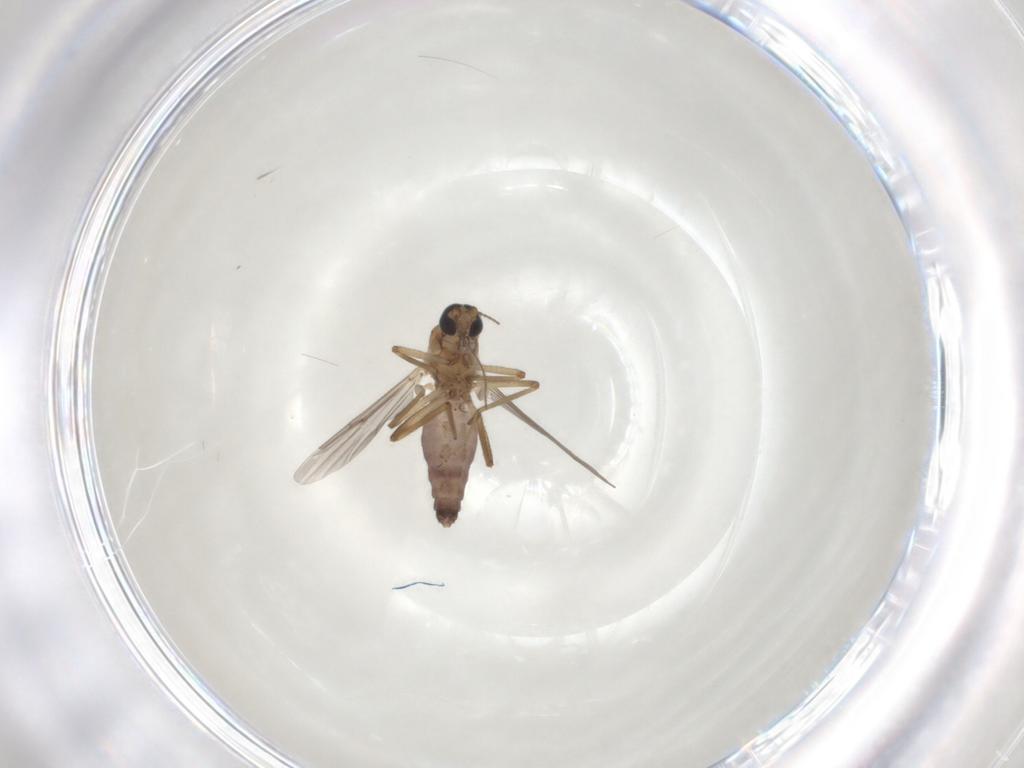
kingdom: Animalia
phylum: Arthropoda
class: Insecta
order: Diptera
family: Ceratopogonidae
